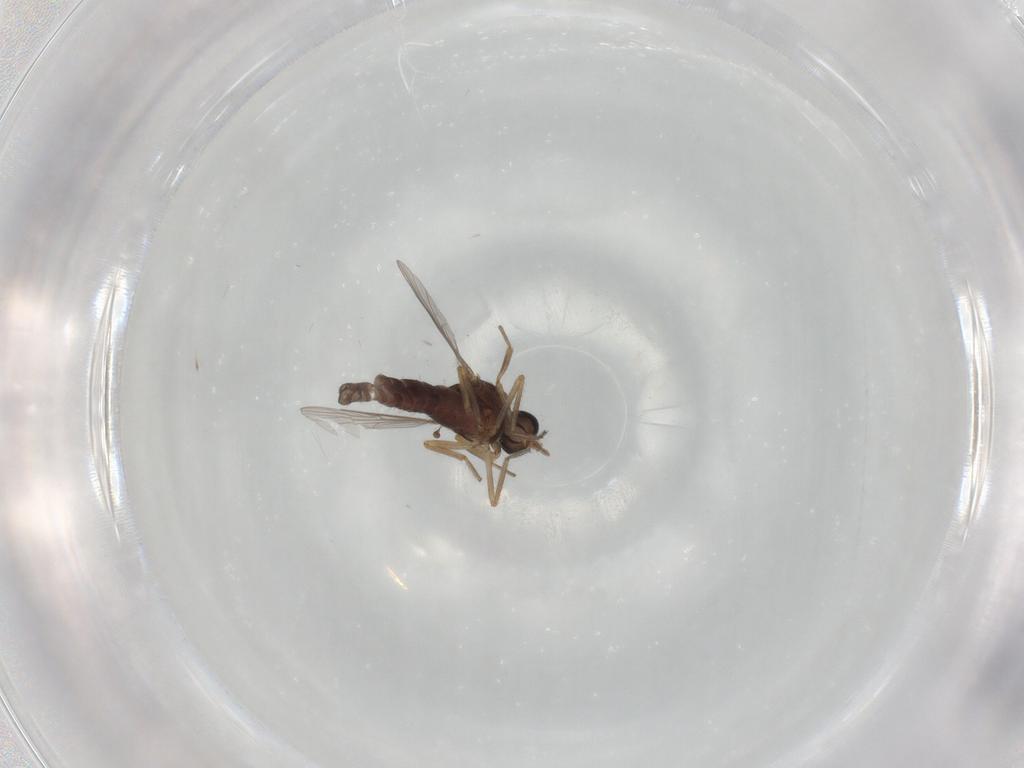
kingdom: Animalia
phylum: Arthropoda
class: Insecta
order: Diptera
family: Ceratopogonidae
